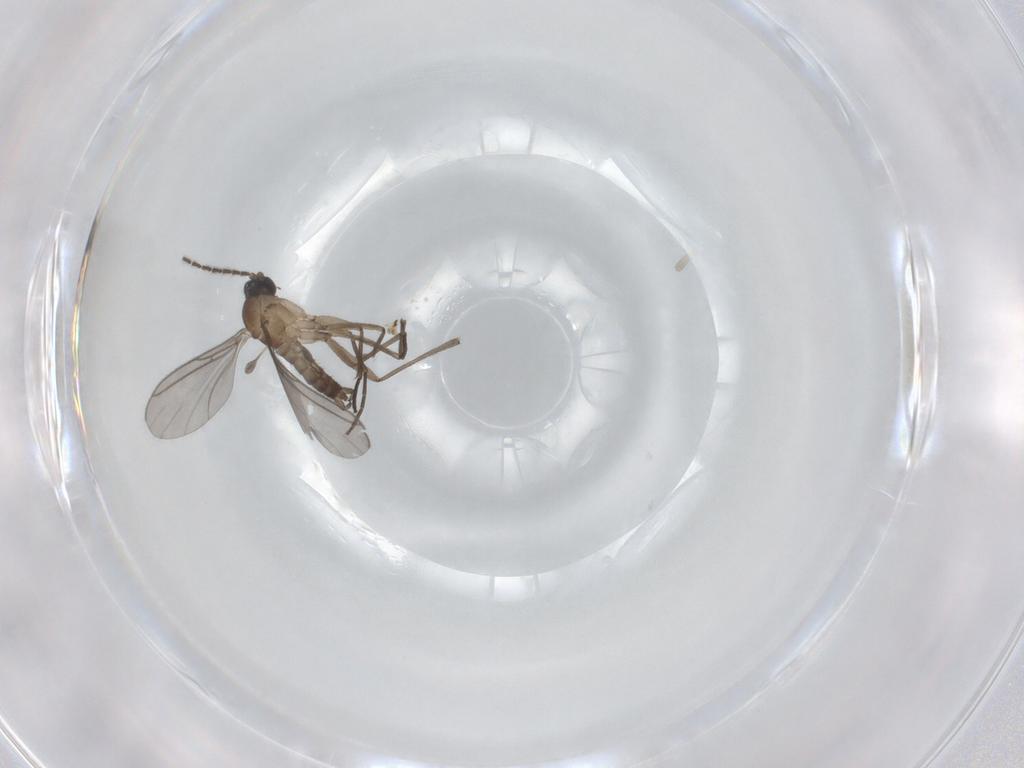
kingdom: Animalia
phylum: Arthropoda
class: Insecta
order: Diptera
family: Sciaridae
